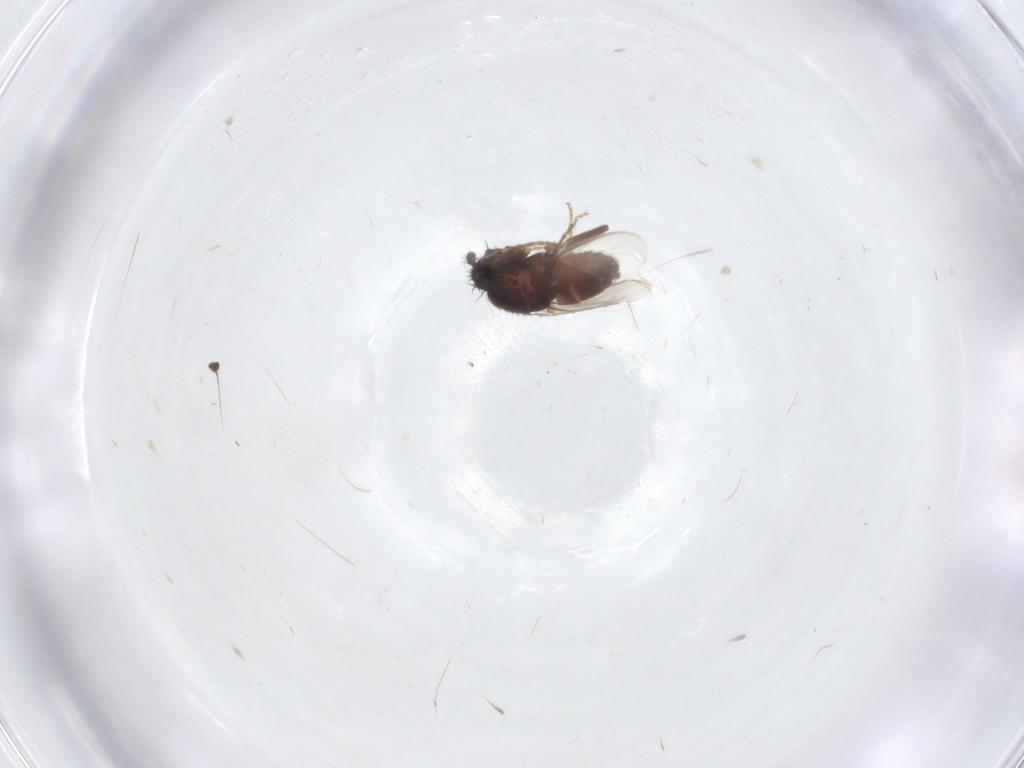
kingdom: Animalia
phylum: Arthropoda
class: Insecta
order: Diptera
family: Sphaeroceridae
